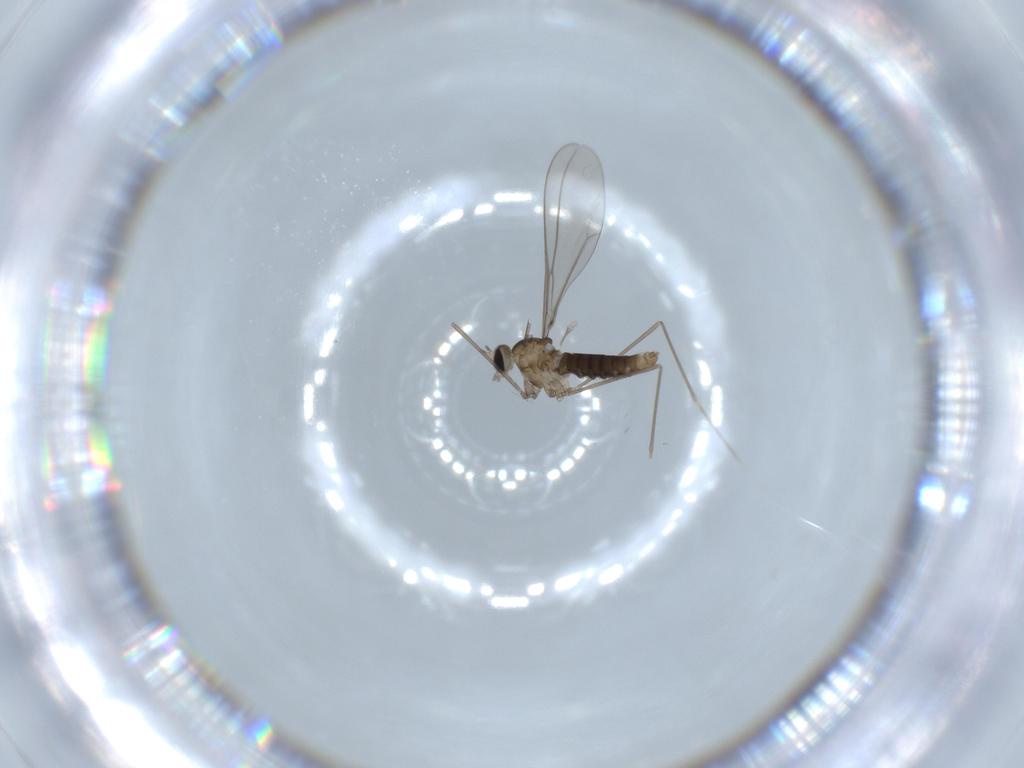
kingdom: Animalia
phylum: Arthropoda
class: Insecta
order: Diptera
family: Cecidomyiidae
